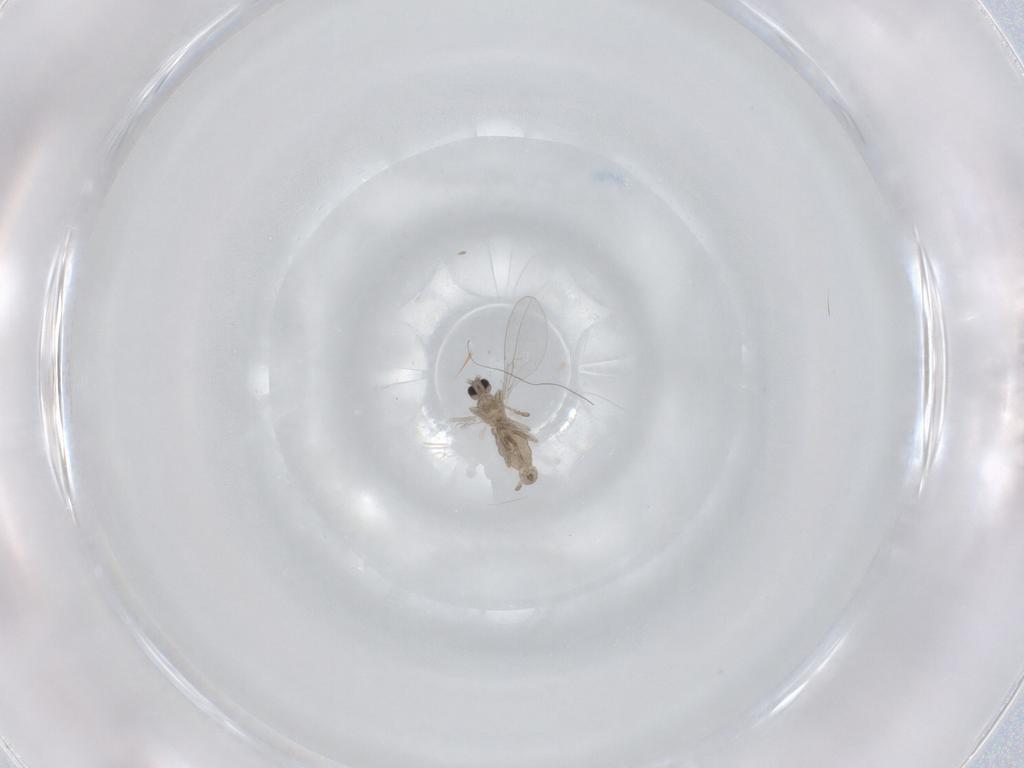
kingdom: Animalia
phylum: Arthropoda
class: Insecta
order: Diptera
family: Cecidomyiidae
